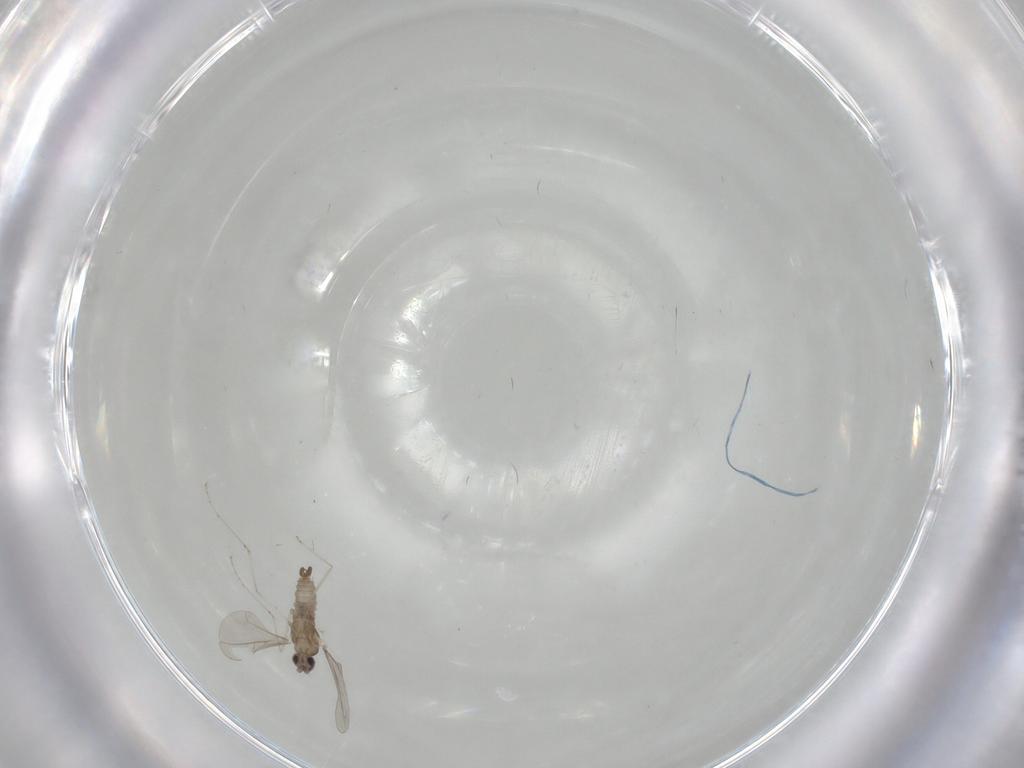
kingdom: Animalia
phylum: Arthropoda
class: Insecta
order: Diptera
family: Cecidomyiidae
